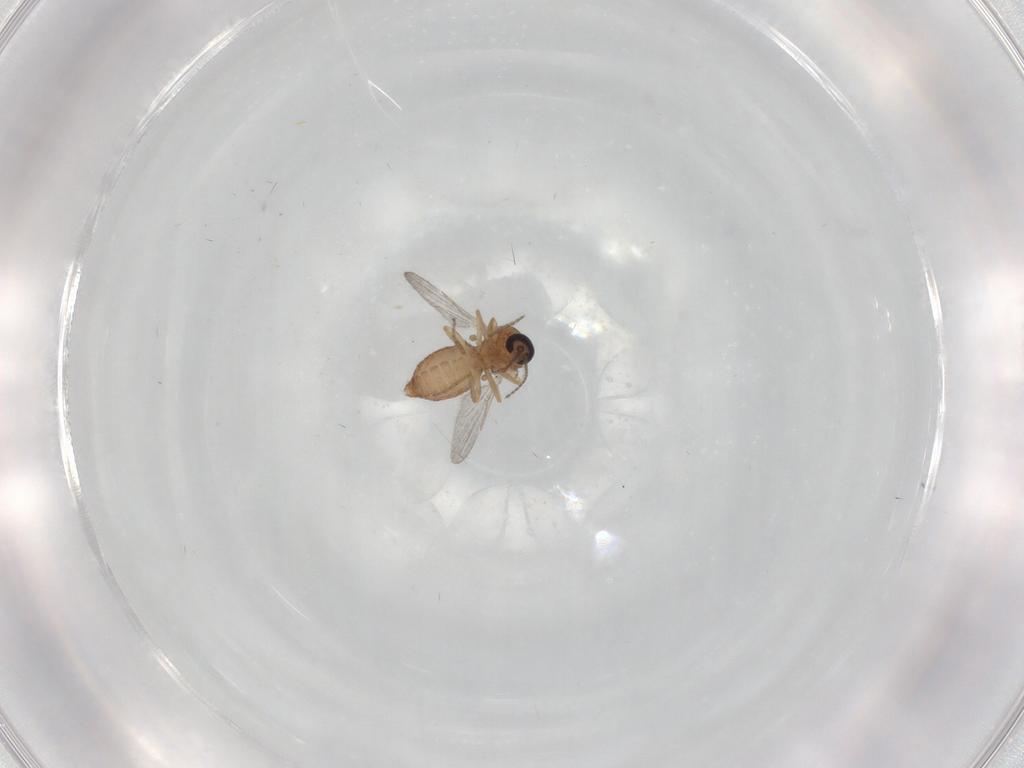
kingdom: Animalia
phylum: Arthropoda
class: Insecta
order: Diptera
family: Ceratopogonidae
